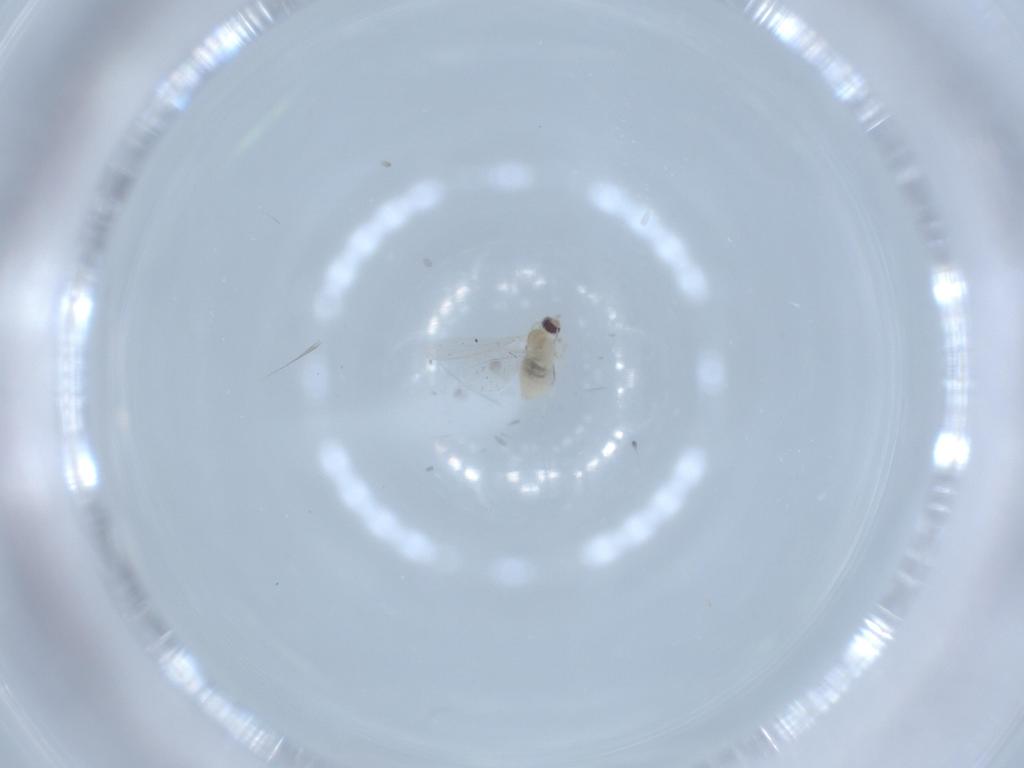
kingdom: Animalia
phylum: Arthropoda
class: Insecta
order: Diptera
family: Cecidomyiidae
